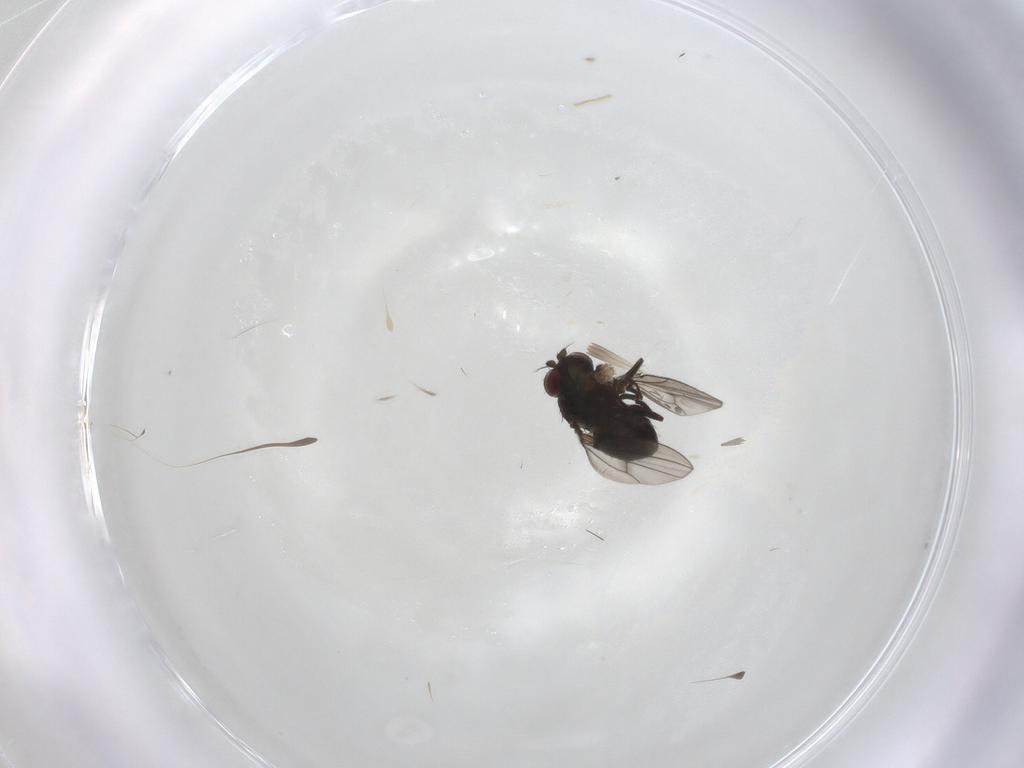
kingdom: Animalia
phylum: Arthropoda
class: Insecta
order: Diptera
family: Ephydridae
